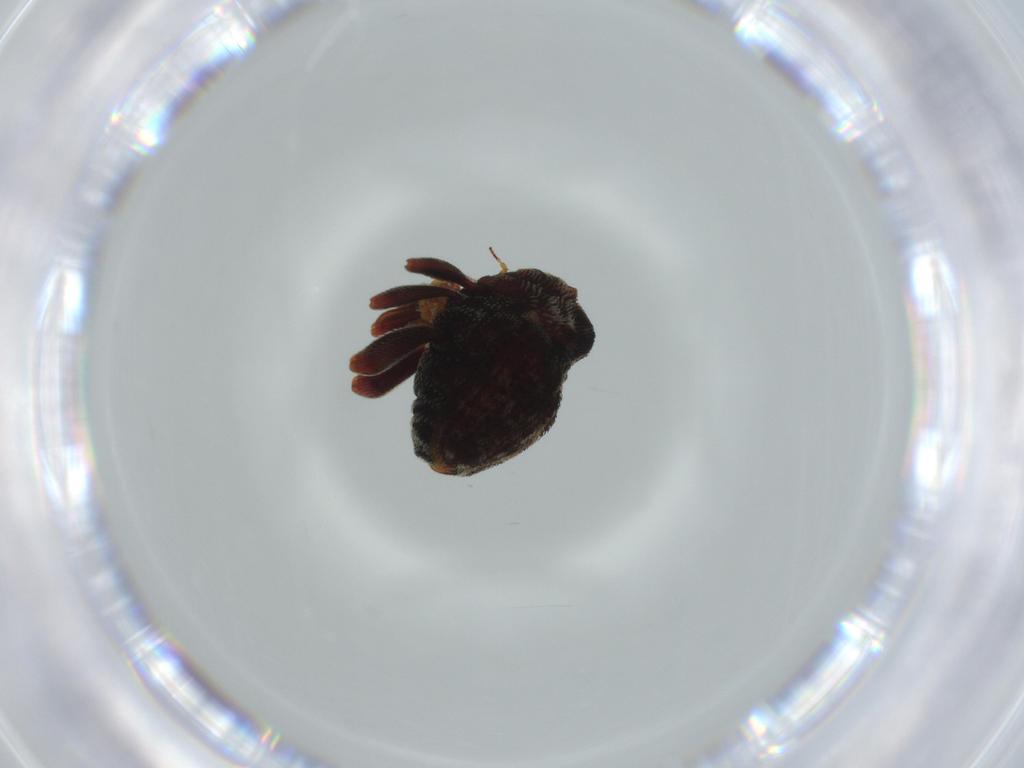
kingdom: Animalia
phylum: Arthropoda
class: Insecta
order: Coleoptera
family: Curculionidae
